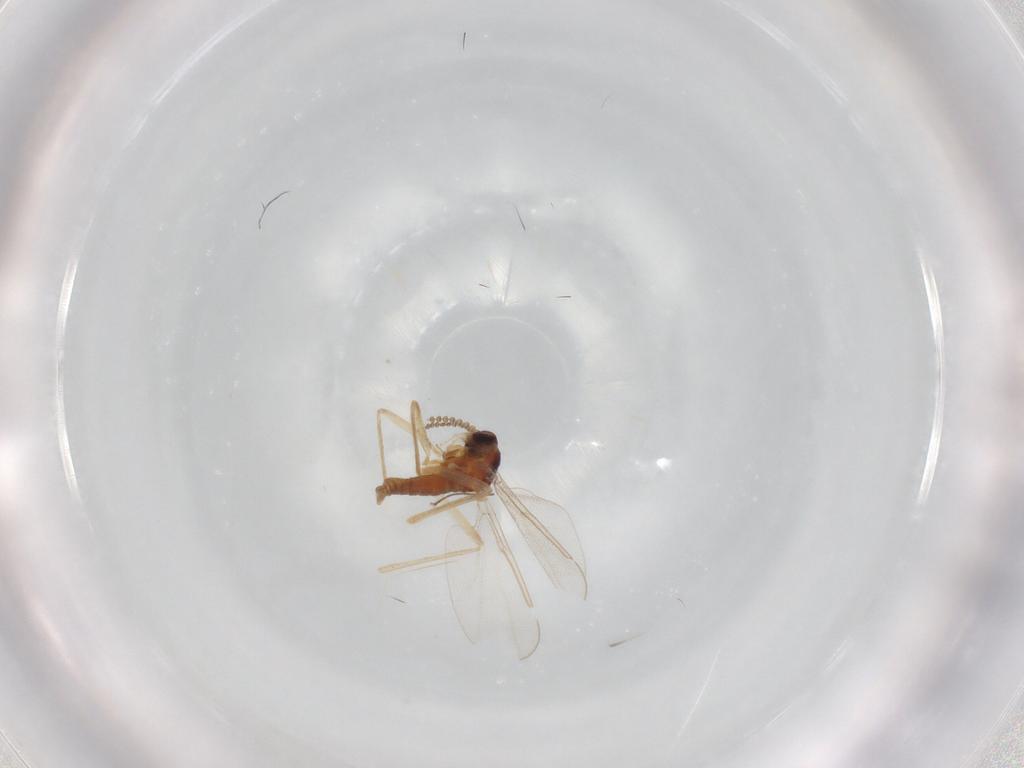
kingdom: Animalia
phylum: Arthropoda
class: Insecta
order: Diptera
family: Cecidomyiidae
